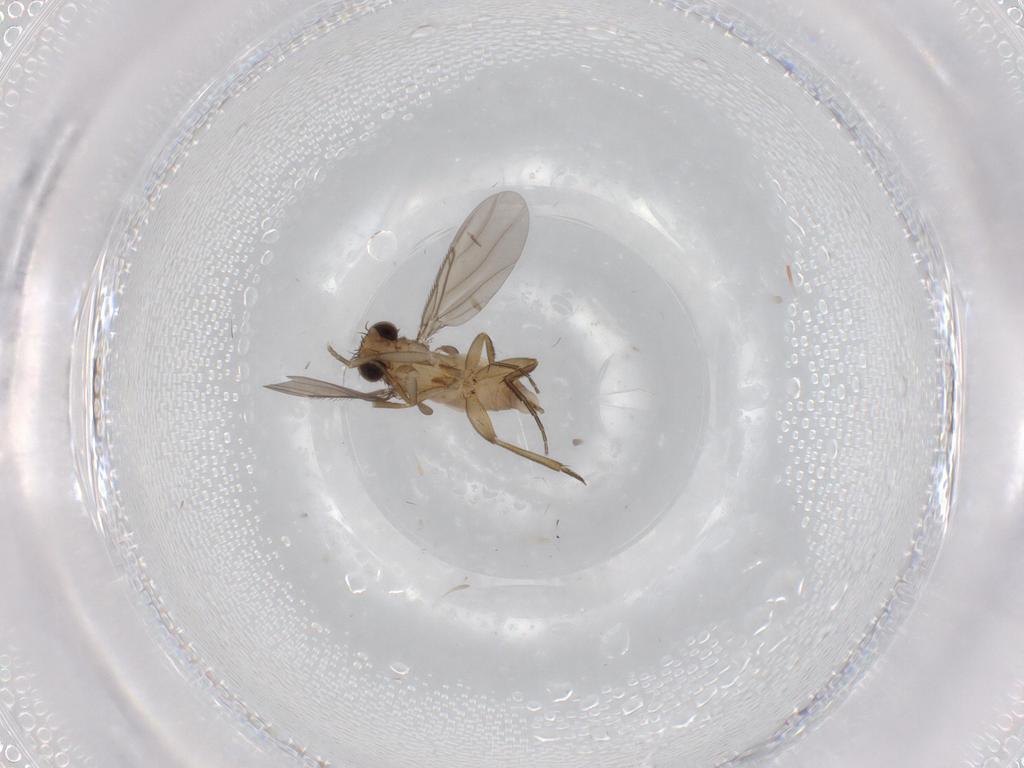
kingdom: Animalia
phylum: Arthropoda
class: Insecta
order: Diptera
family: Phoridae
